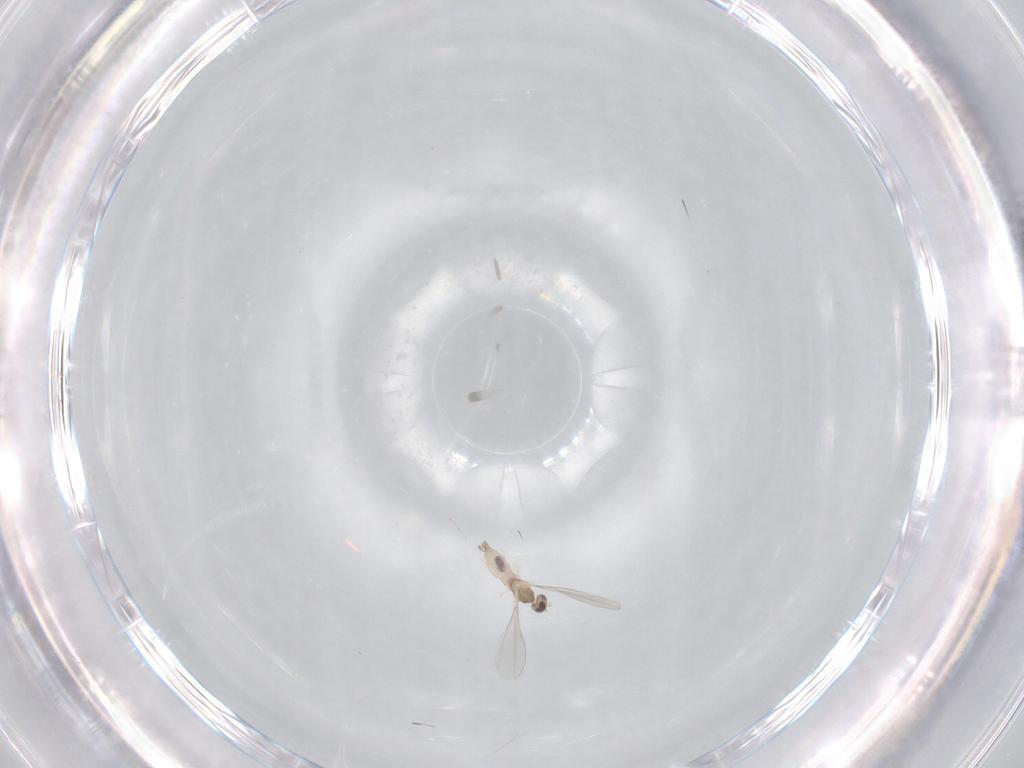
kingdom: Animalia
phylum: Arthropoda
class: Insecta
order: Diptera
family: Cecidomyiidae
